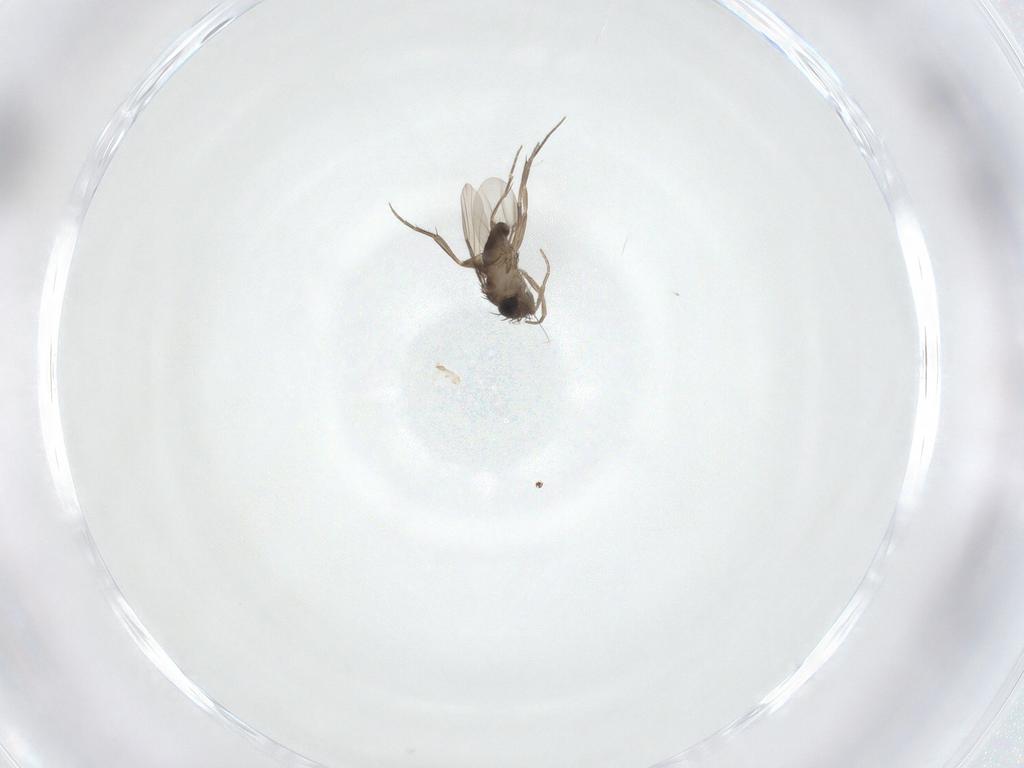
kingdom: Animalia
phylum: Arthropoda
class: Insecta
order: Diptera
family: Phoridae
